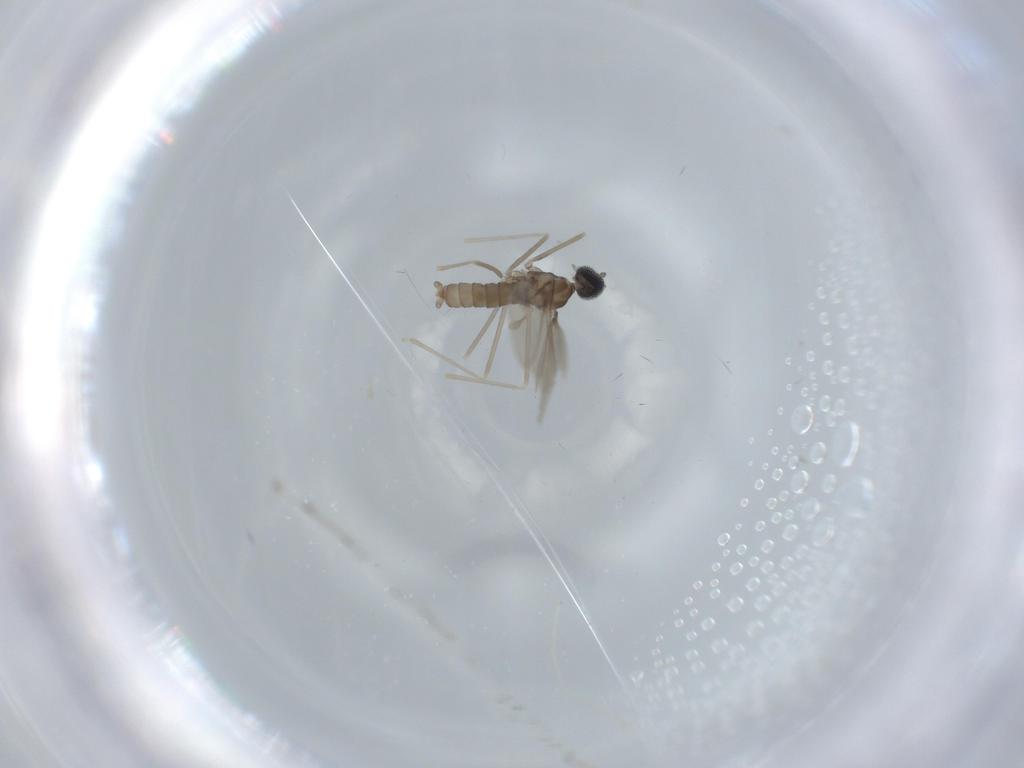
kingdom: Animalia
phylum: Arthropoda
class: Insecta
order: Diptera
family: Cecidomyiidae
